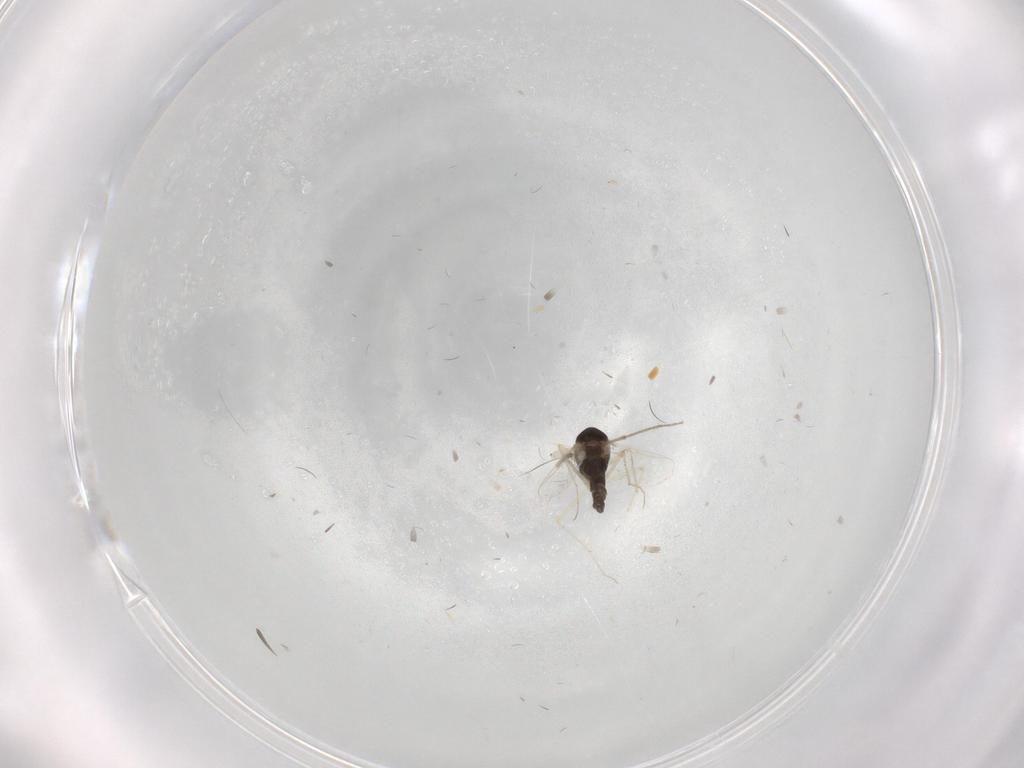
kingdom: Animalia
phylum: Arthropoda
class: Insecta
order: Diptera
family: Chironomidae
